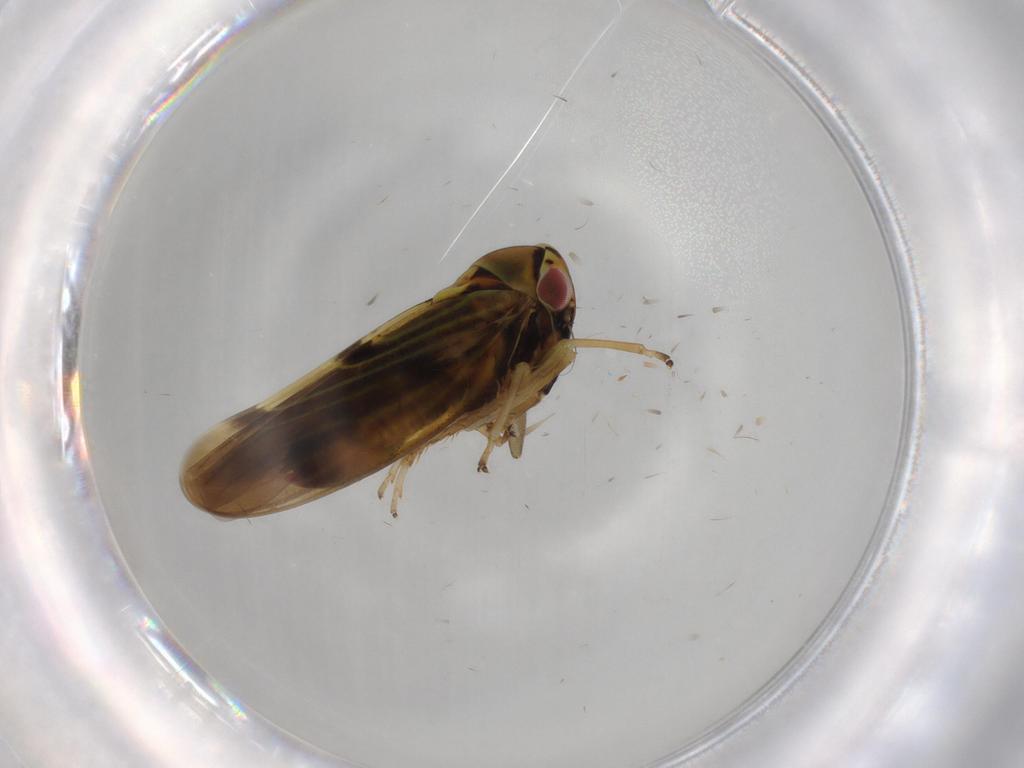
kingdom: Animalia
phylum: Arthropoda
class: Insecta
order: Hemiptera
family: Cicadellidae
